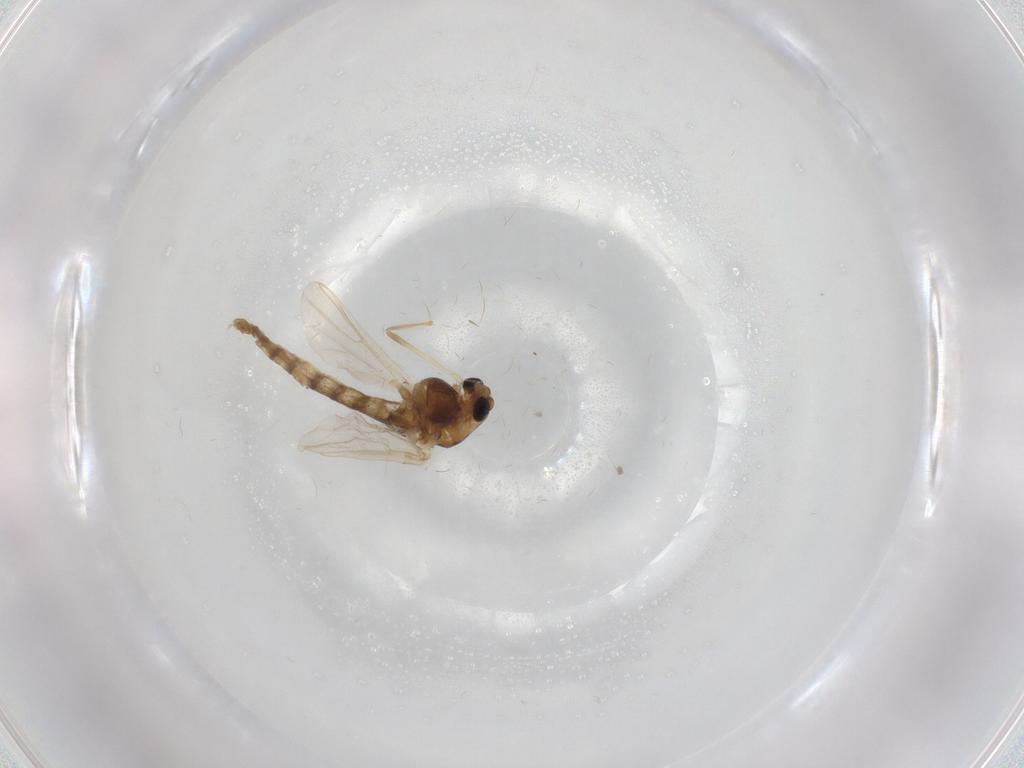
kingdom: Animalia
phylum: Arthropoda
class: Insecta
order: Diptera
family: Chironomidae
